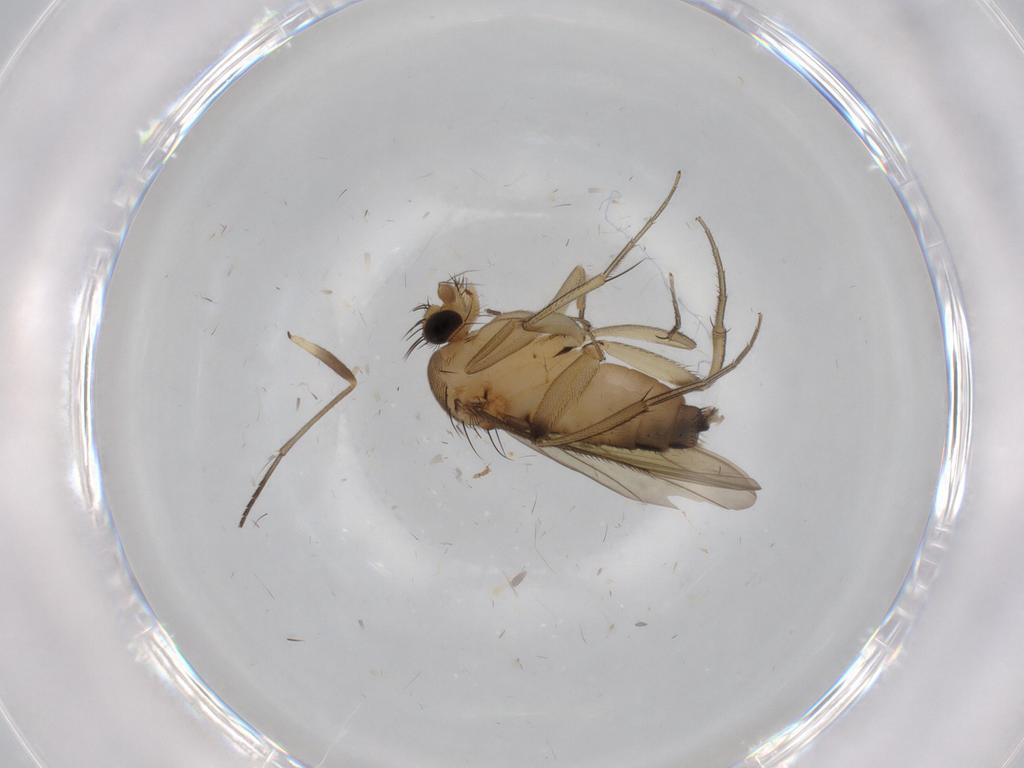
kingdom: Animalia
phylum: Arthropoda
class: Insecta
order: Diptera
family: Phoridae
